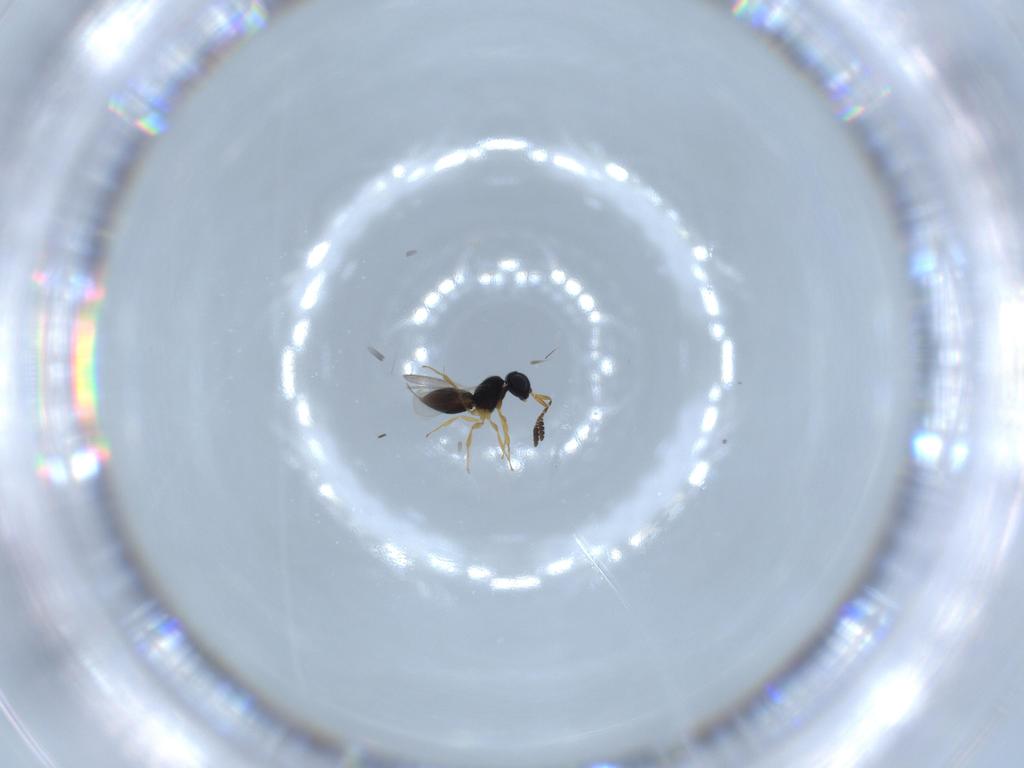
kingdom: Animalia
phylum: Arthropoda
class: Insecta
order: Hymenoptera
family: Scelionidae
